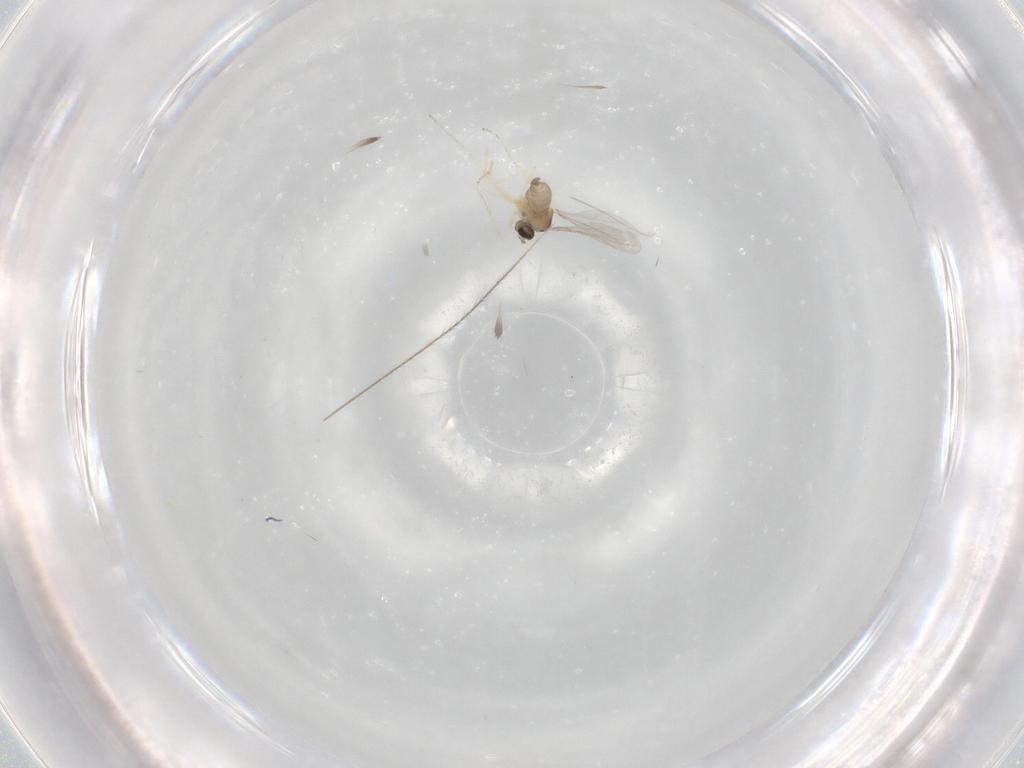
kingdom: Animalia
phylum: Arthropoda
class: Insecta
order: Diptera
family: Cecidomyiidae
